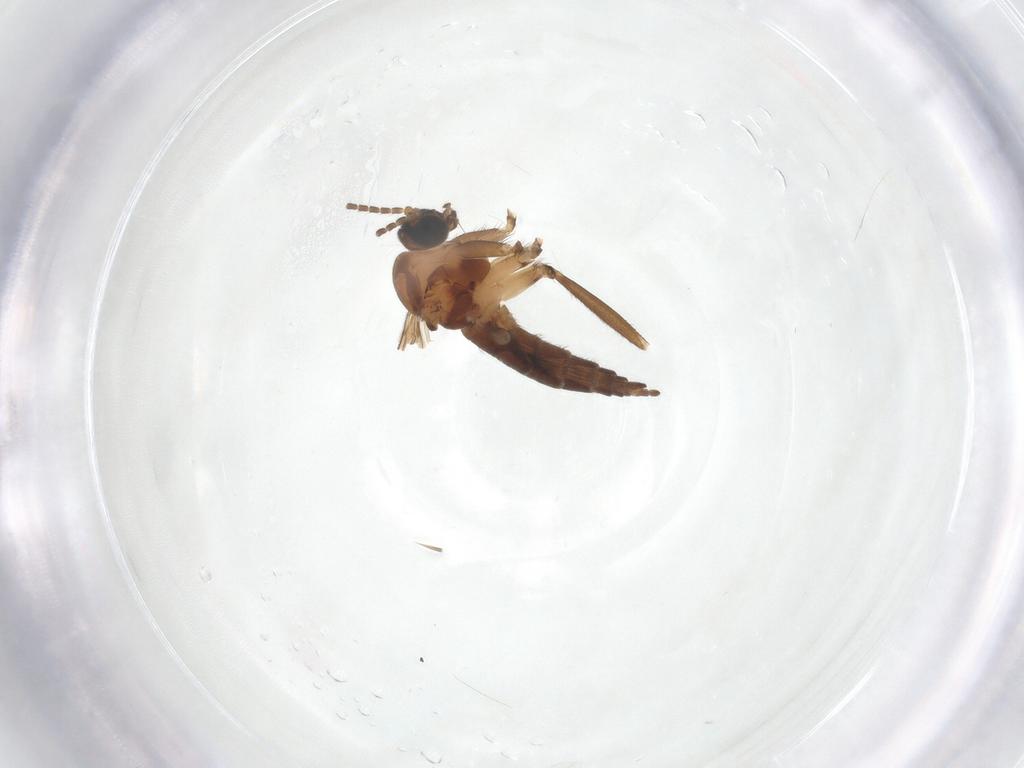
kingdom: Animalia
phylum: Arthropoda
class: Insecta
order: Diptera
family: Sciaridae
